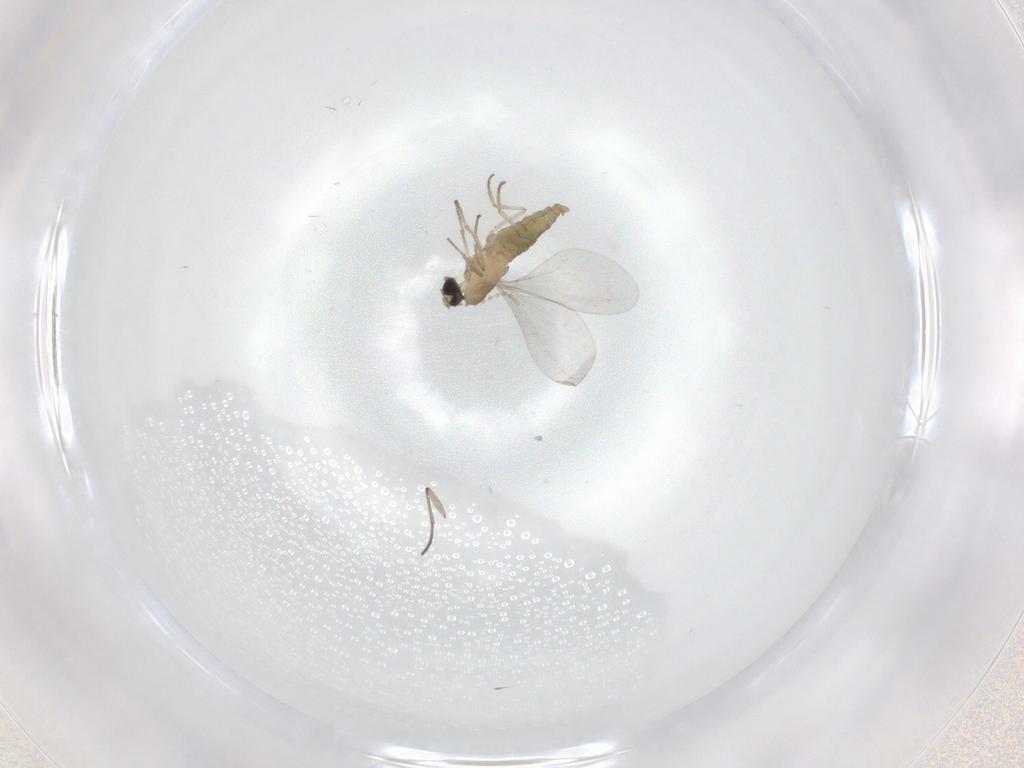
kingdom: Animalia
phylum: Arthropoda
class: Insecta
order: Diptera
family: Cecidomyiidae
